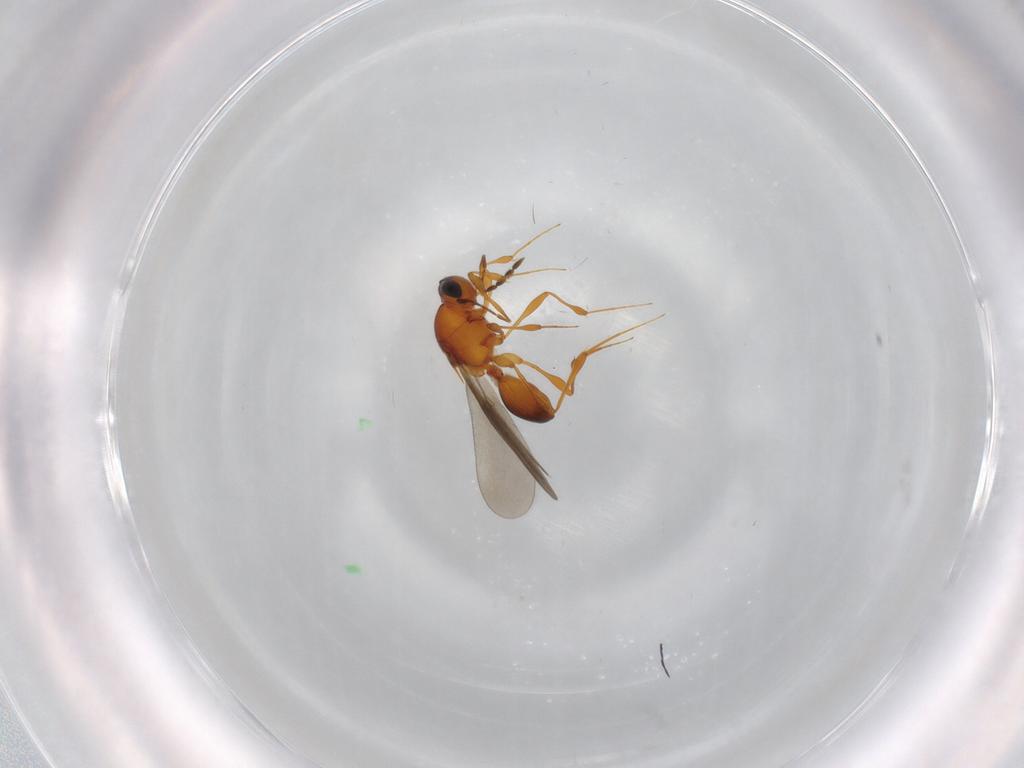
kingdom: Animalia
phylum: Arthropoda
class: Insecta
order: Hymenoptera
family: Platygastridae
